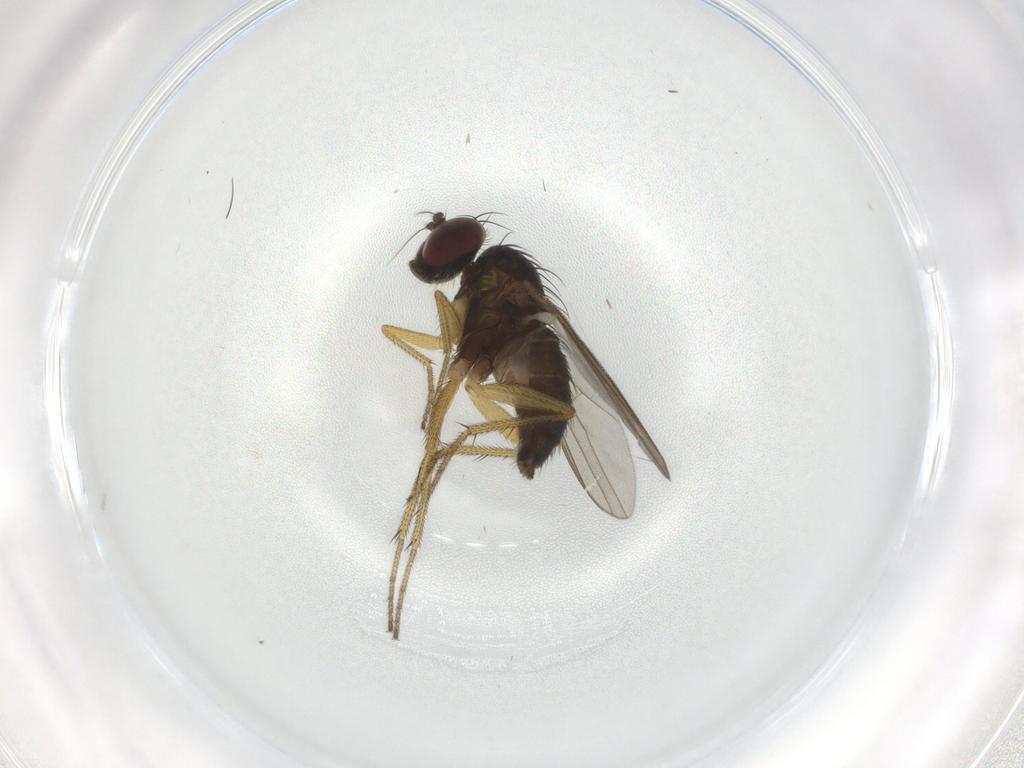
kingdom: Animalia
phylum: Arthropoda
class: Insecta
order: Diptera
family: Dolichopodidae
